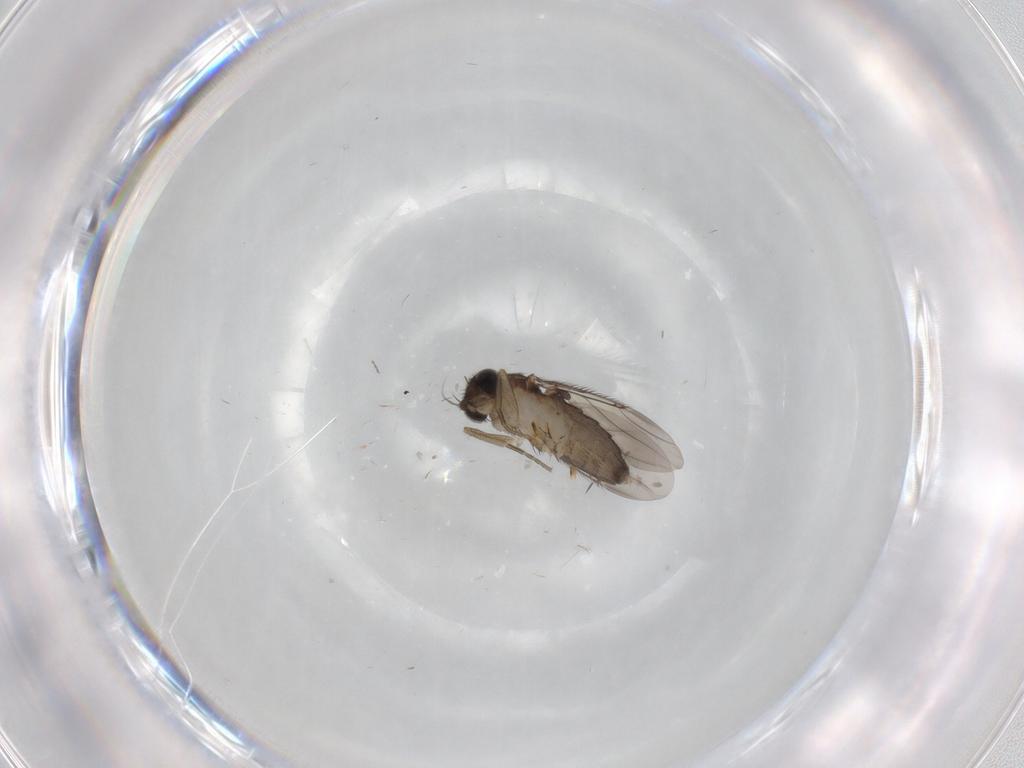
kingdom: Animalia
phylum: Arthropoda
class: Insecta
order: Diptera
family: Phoridae
